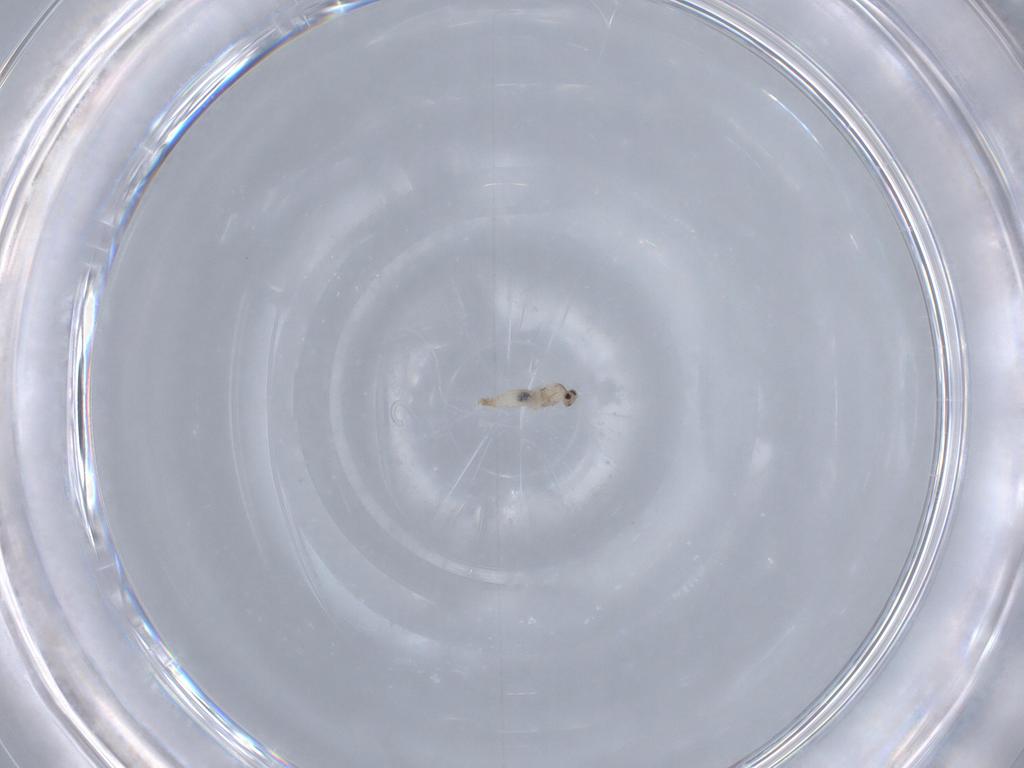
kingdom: Animalia
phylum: Arthropoda
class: Insecta
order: Diptera
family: Cecidomyiidae
